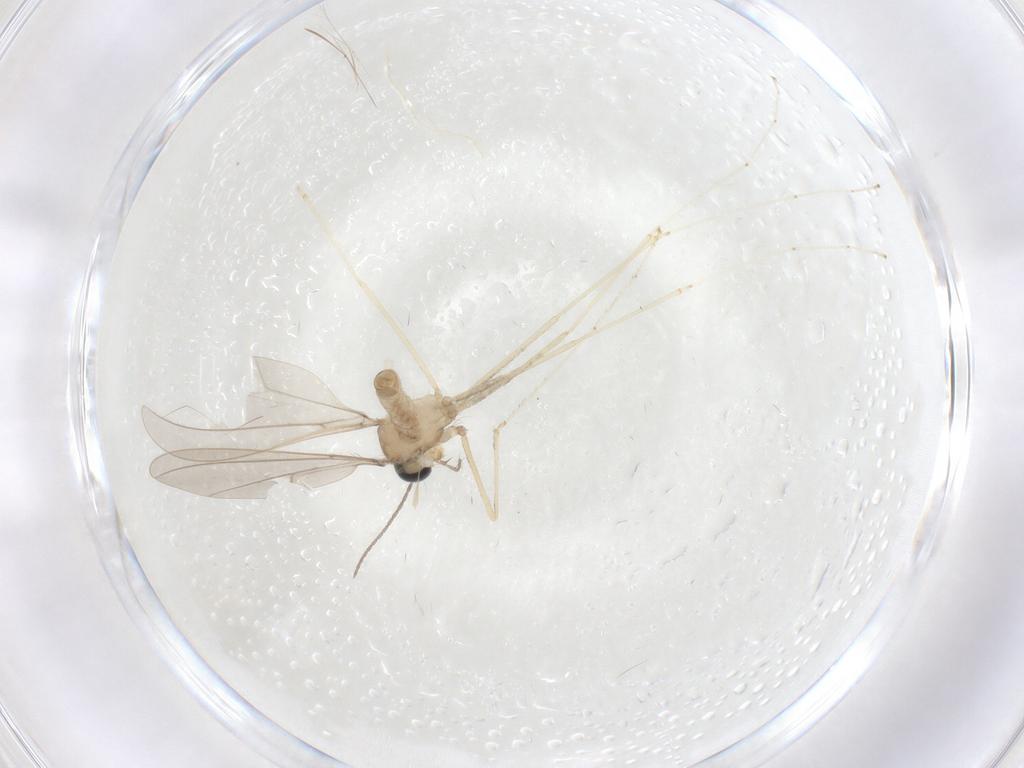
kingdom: Animalia
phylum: Arthropoda
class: Insecta
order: Diptera
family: Cecidomyiidae
